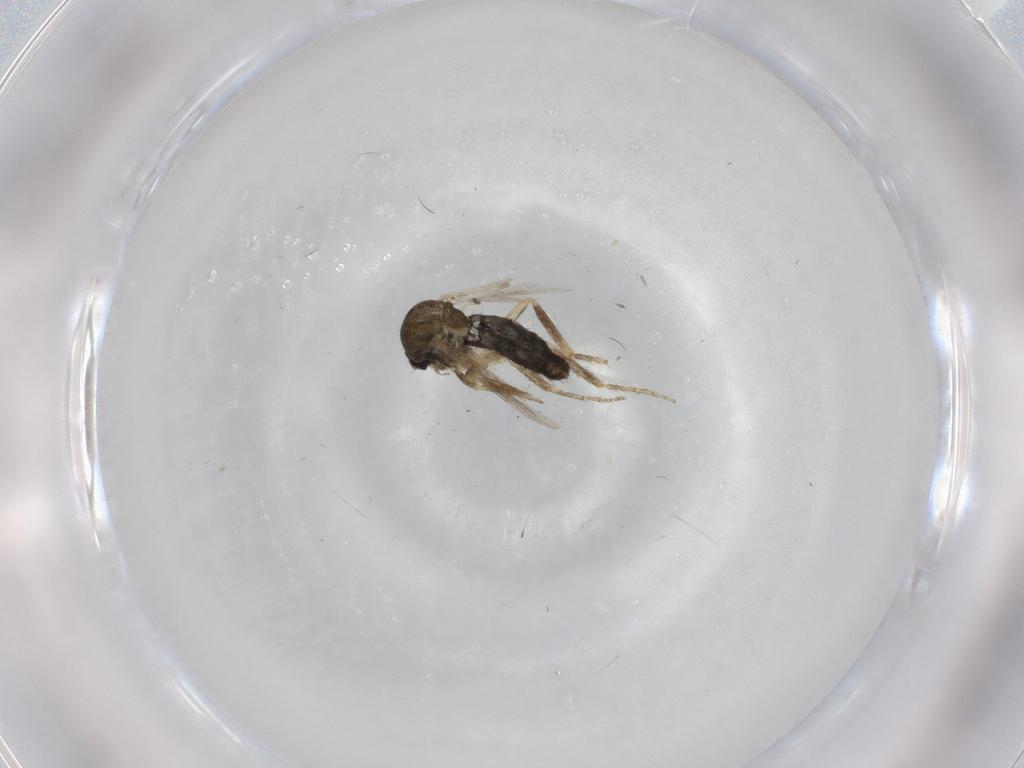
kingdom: Animalia
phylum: Arthropoda
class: Insecta
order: Diptera
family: Ceratopogonidae
